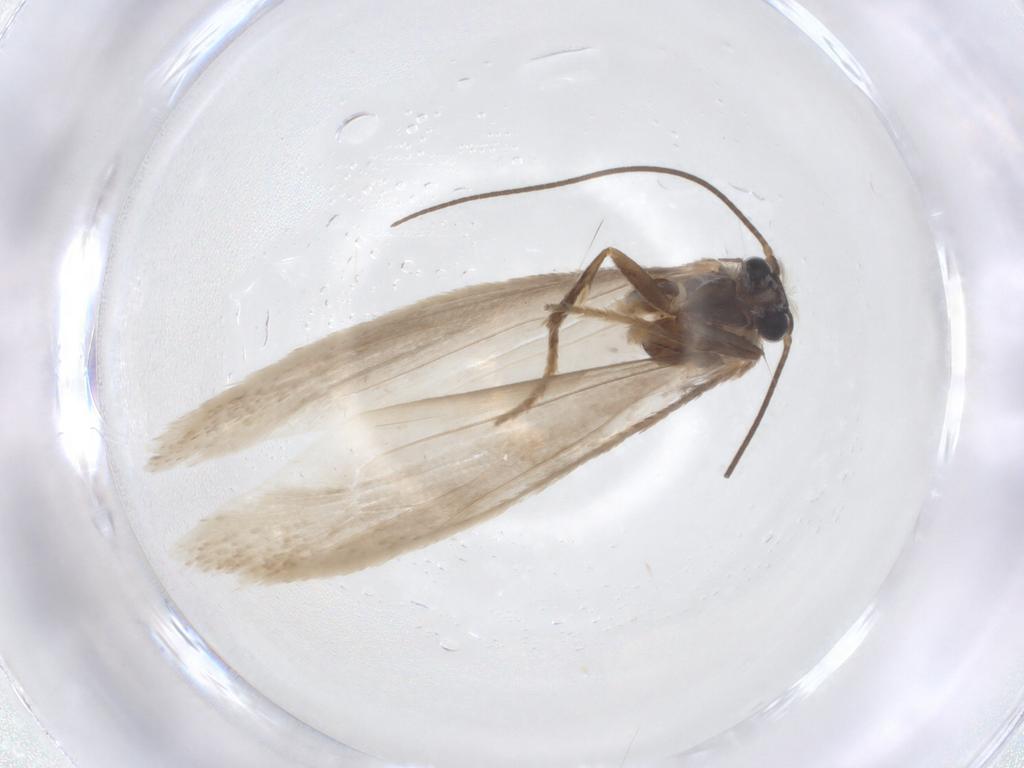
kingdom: Animalia
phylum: Arthropoda
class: Insecta
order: Lepidoptera
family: Tridentaformidae
